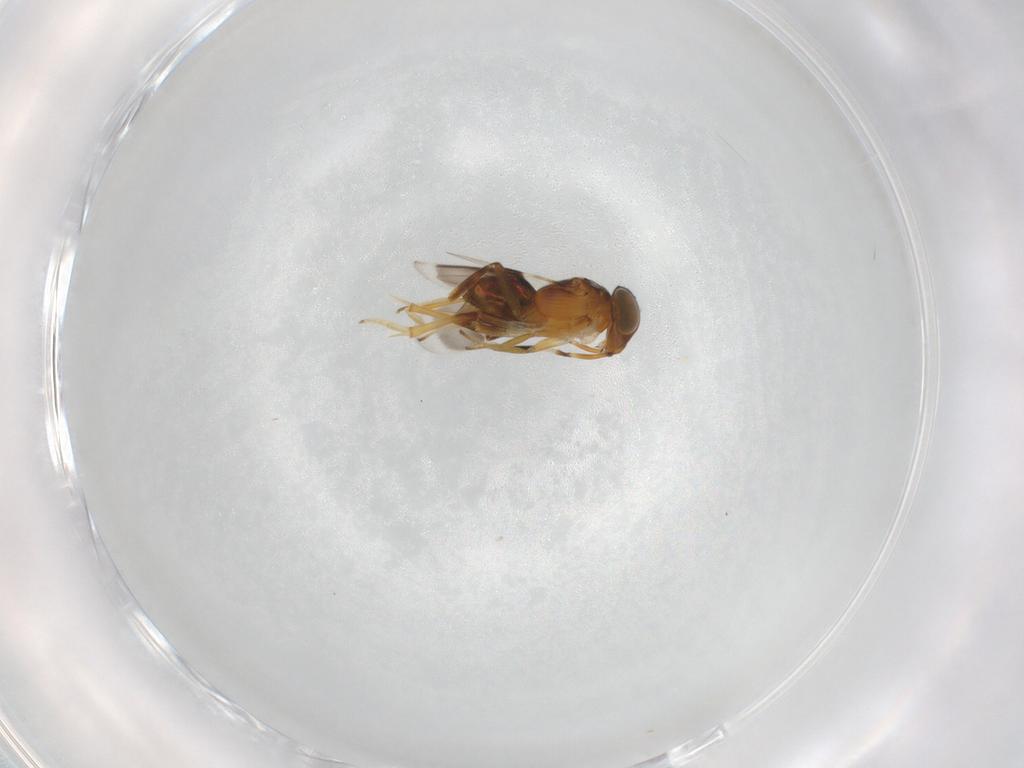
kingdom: Animalia
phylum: Arthropoda
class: Insecta
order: Hymenoptera
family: Encyrtidae
